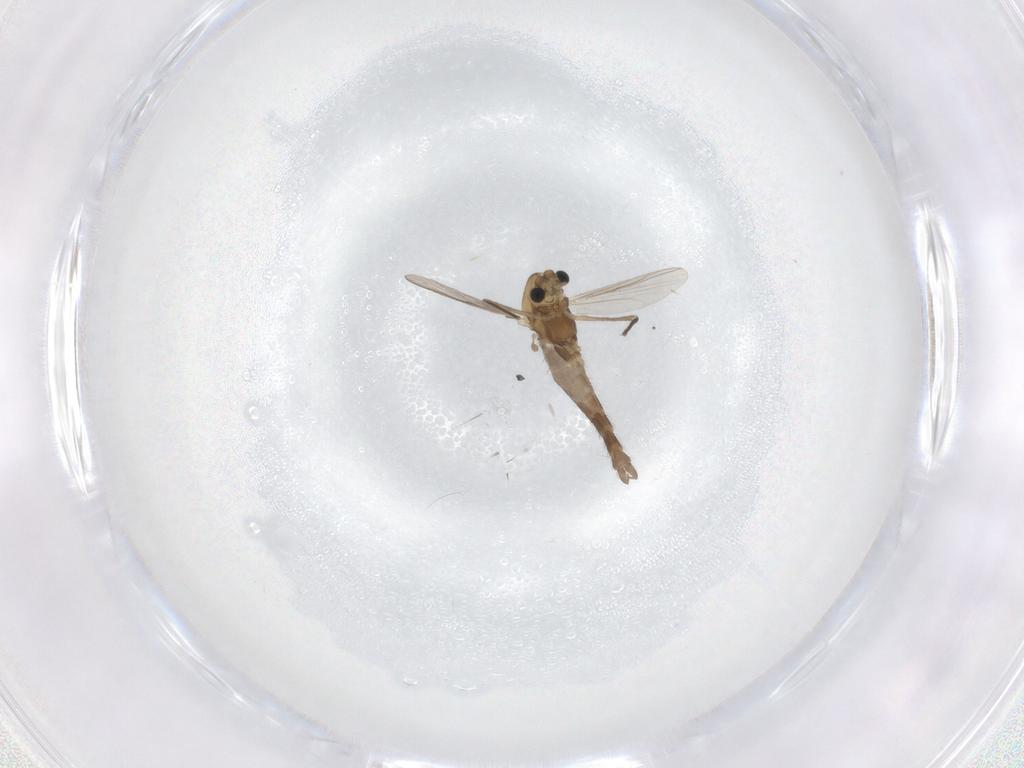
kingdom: Animalia
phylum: Arthropoda
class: Insecta
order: Diptera
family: Chironomidae
